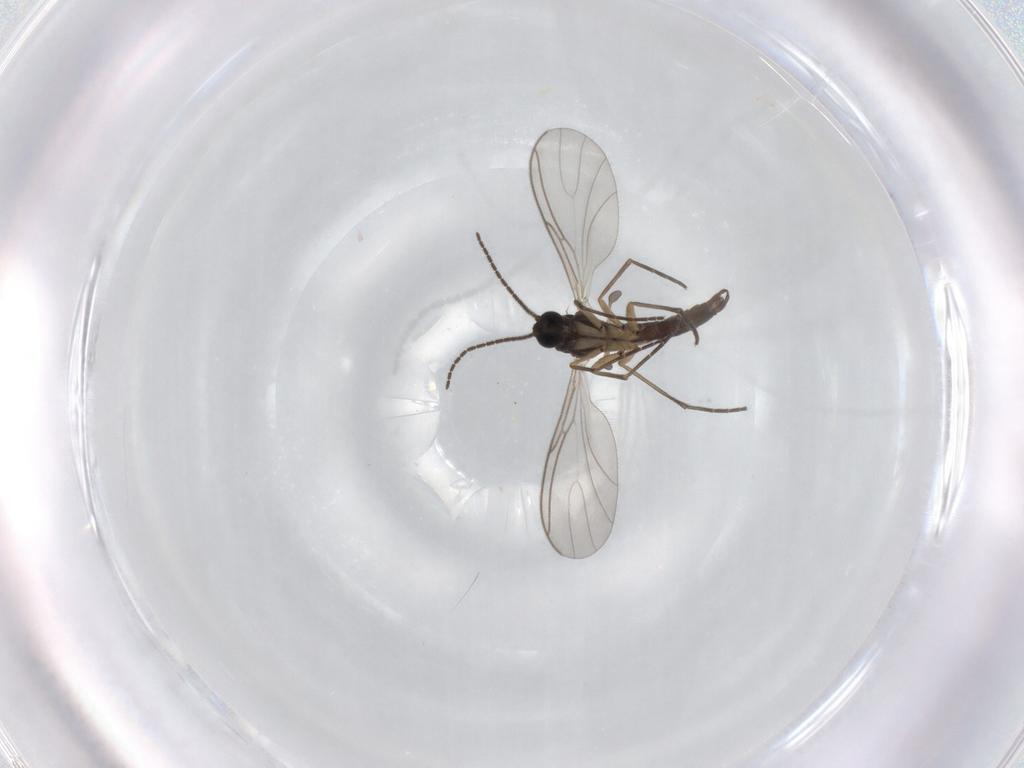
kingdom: Animalia
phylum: Arthropoda
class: Insecta
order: Diptera
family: Sciaridae
